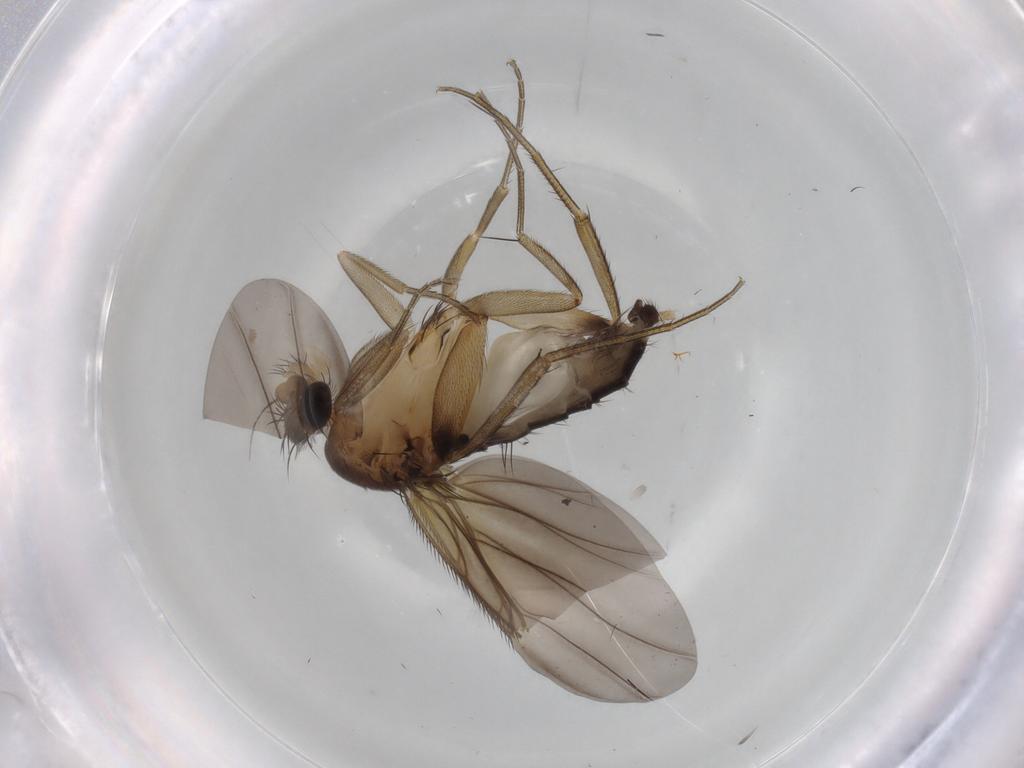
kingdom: Animalia
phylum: Arthropoda
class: Insecta
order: Diptera
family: Phoridae
